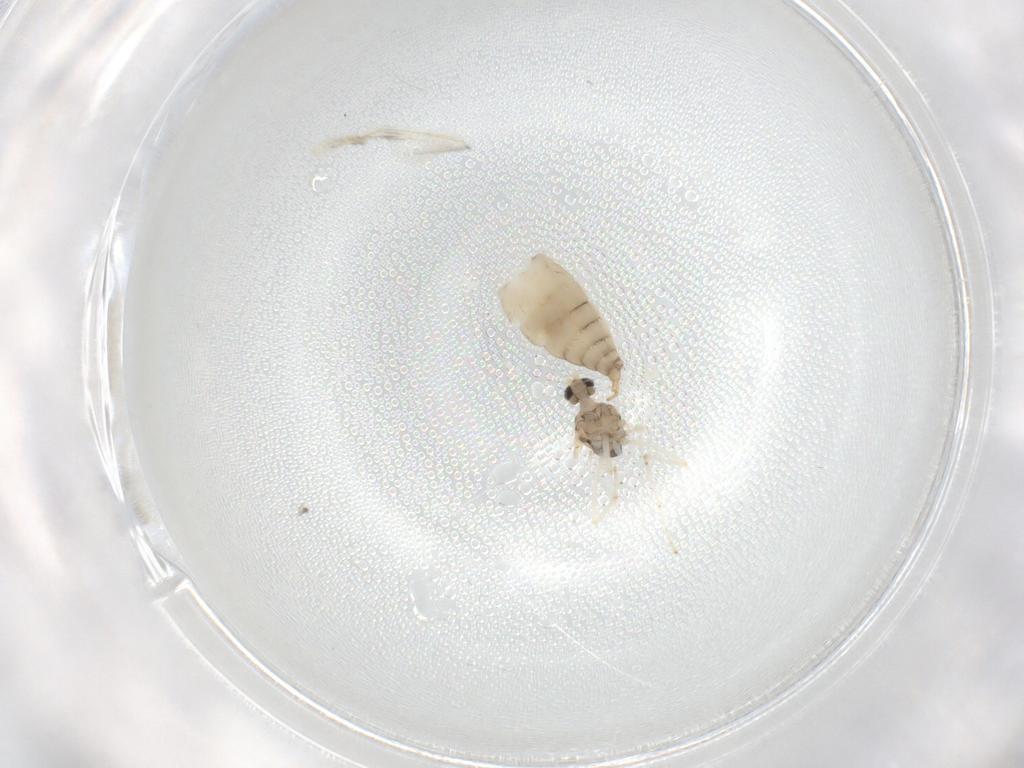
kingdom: Animalia
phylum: Arthropoda
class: Insecta
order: Diptera
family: Cecidomyiidae
